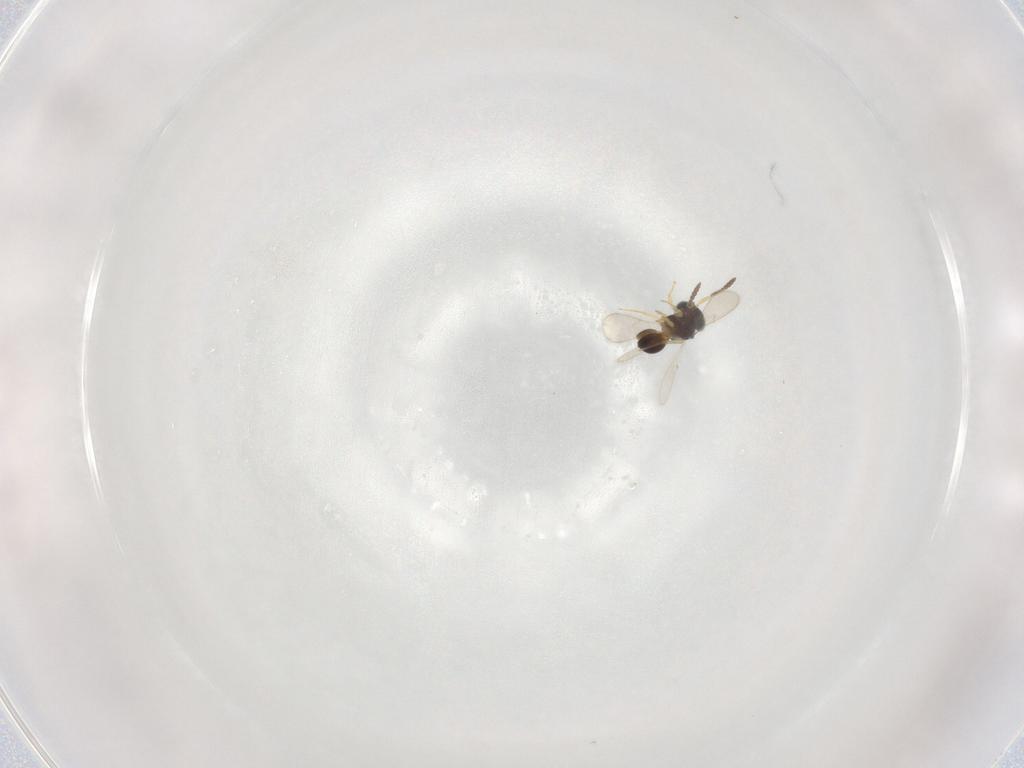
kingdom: Animalia
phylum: Arthropoda
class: Insecta
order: Hymenoptera
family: Scelionidae
